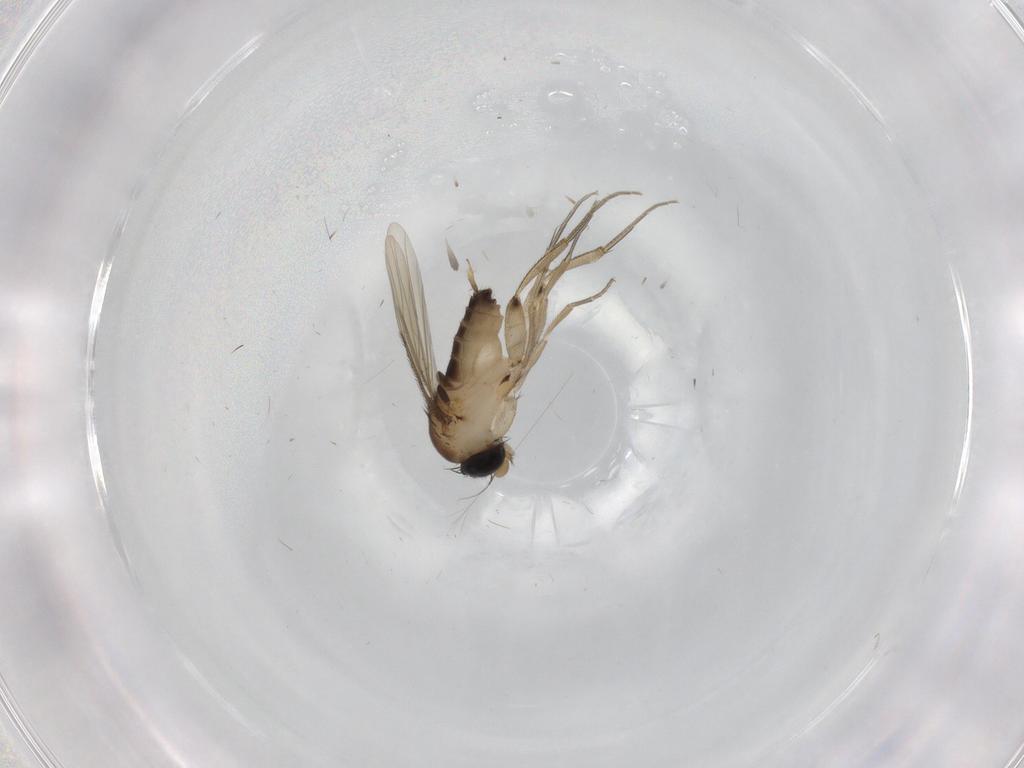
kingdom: Animalia
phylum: Arthropoda
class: Insecta
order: Diptera
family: Phoridae
